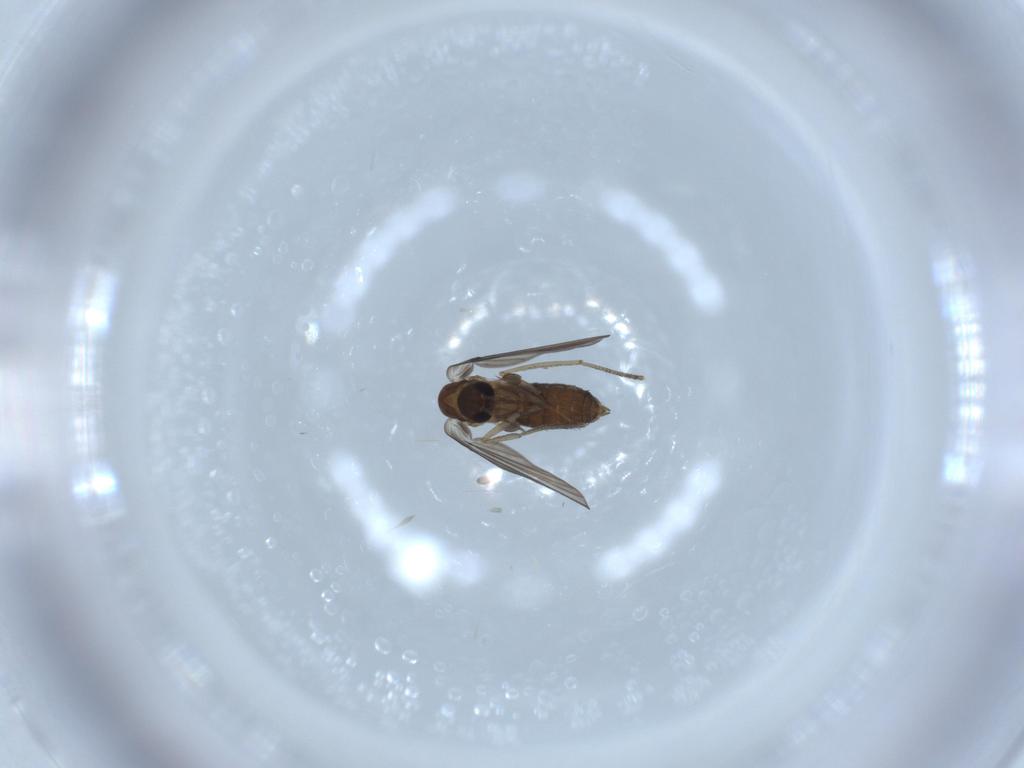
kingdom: Animalia
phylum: Arthropoda
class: Insecta
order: Diptera
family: Psychodidae
